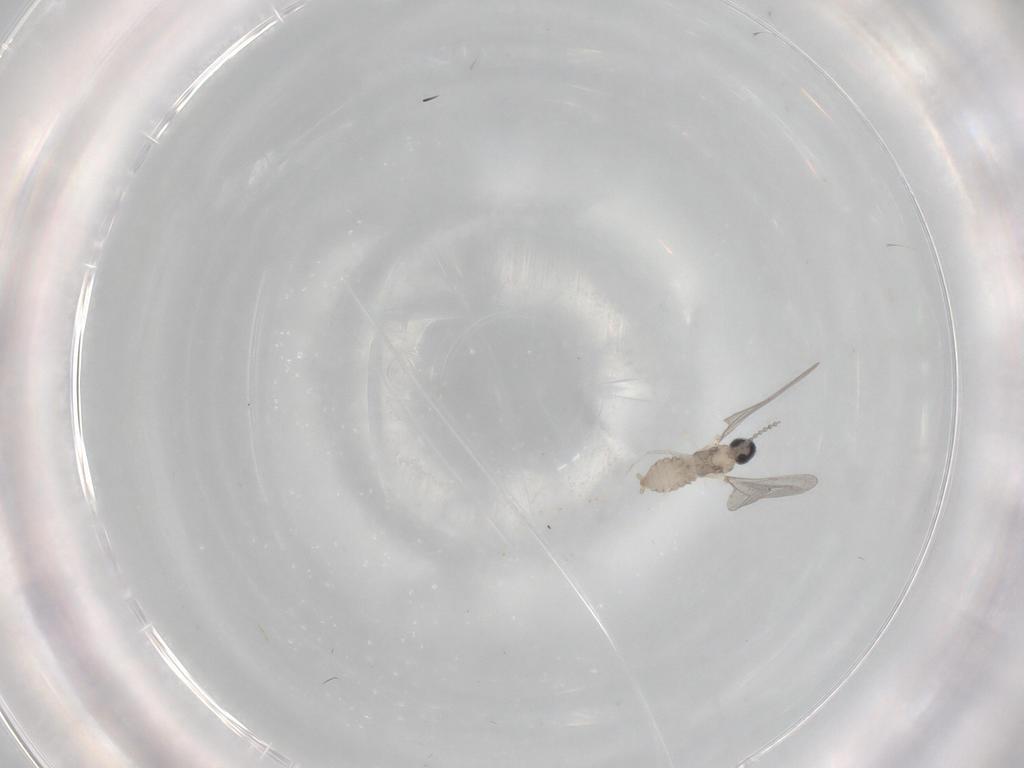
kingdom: Animalia
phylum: Arthropoda
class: Insecta
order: Diptera
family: Cecidomyiidae
